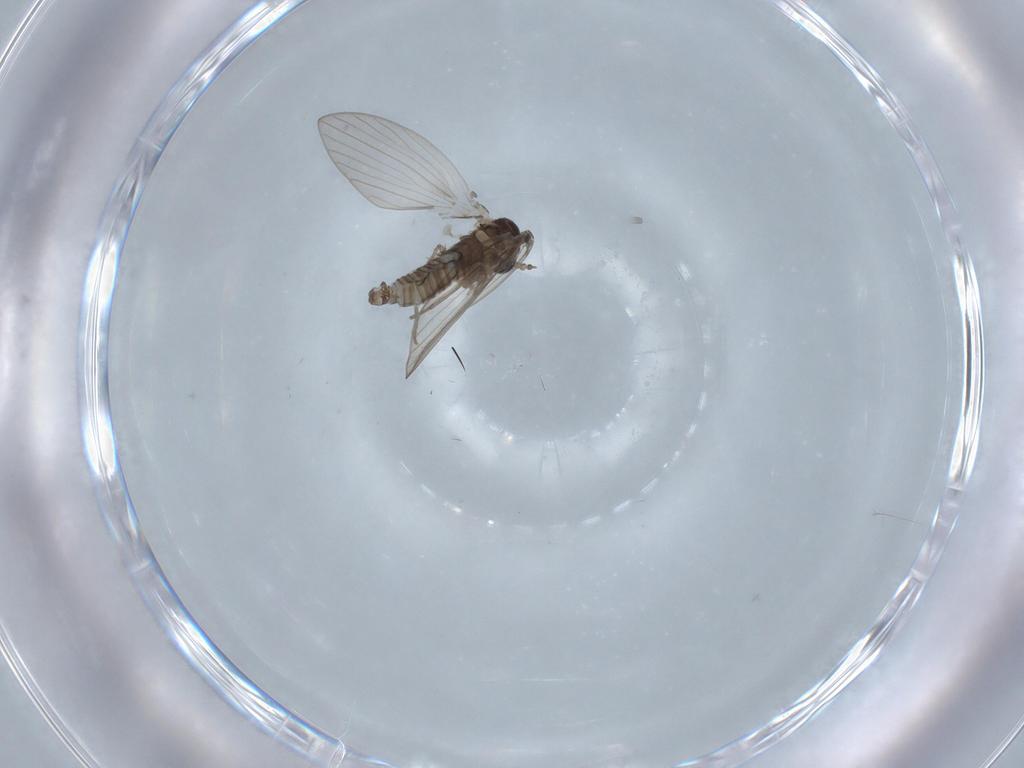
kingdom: Animalia
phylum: Arthropoda
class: Insecta
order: Diptera
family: Psychodidae
